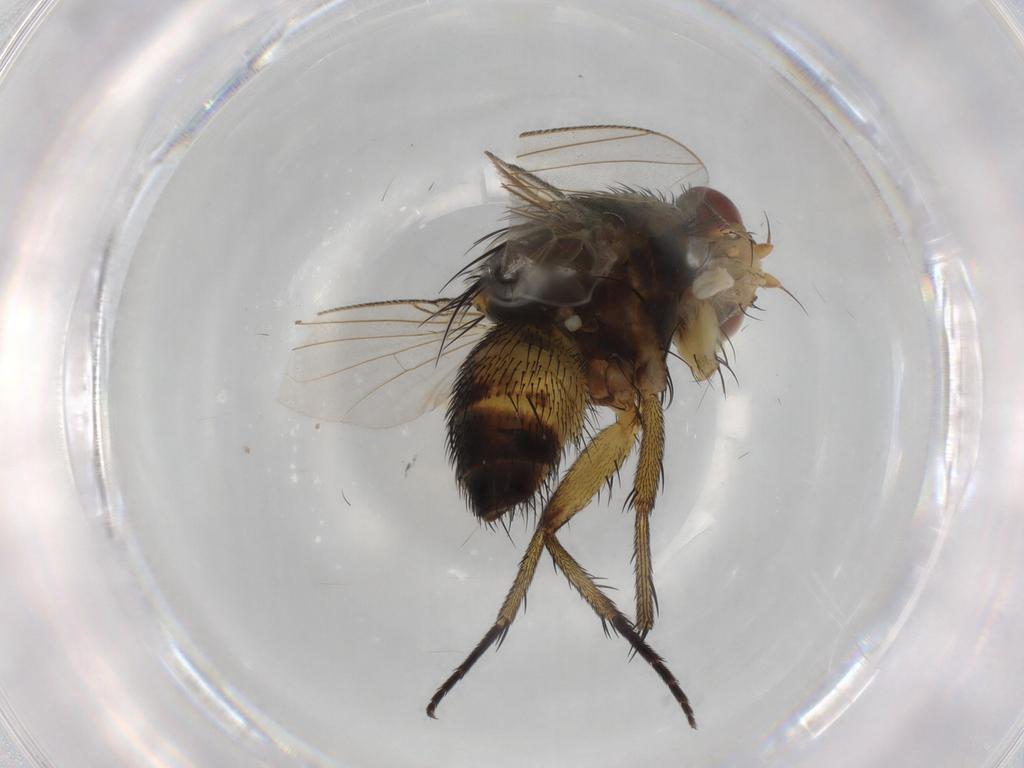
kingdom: Animalia
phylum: Arthropoda
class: Insecta
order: Diptera
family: Tachinidae
